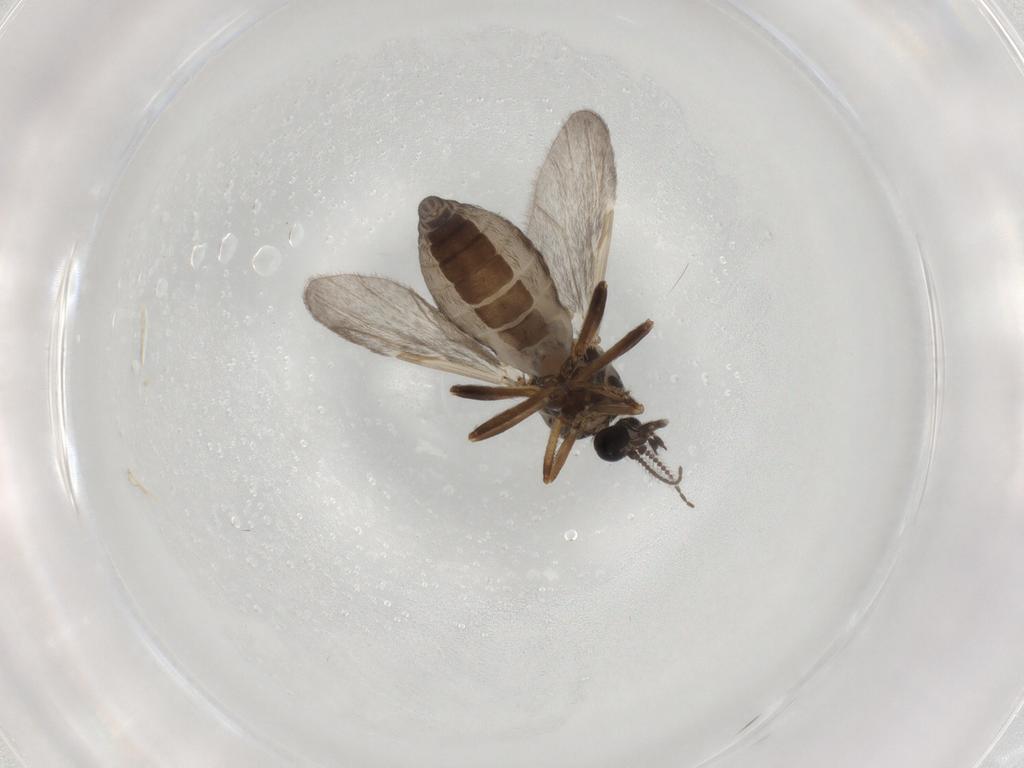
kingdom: Animalia
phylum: Arthropoda
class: Insecta
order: Diptera
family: Ceratopogonidae
